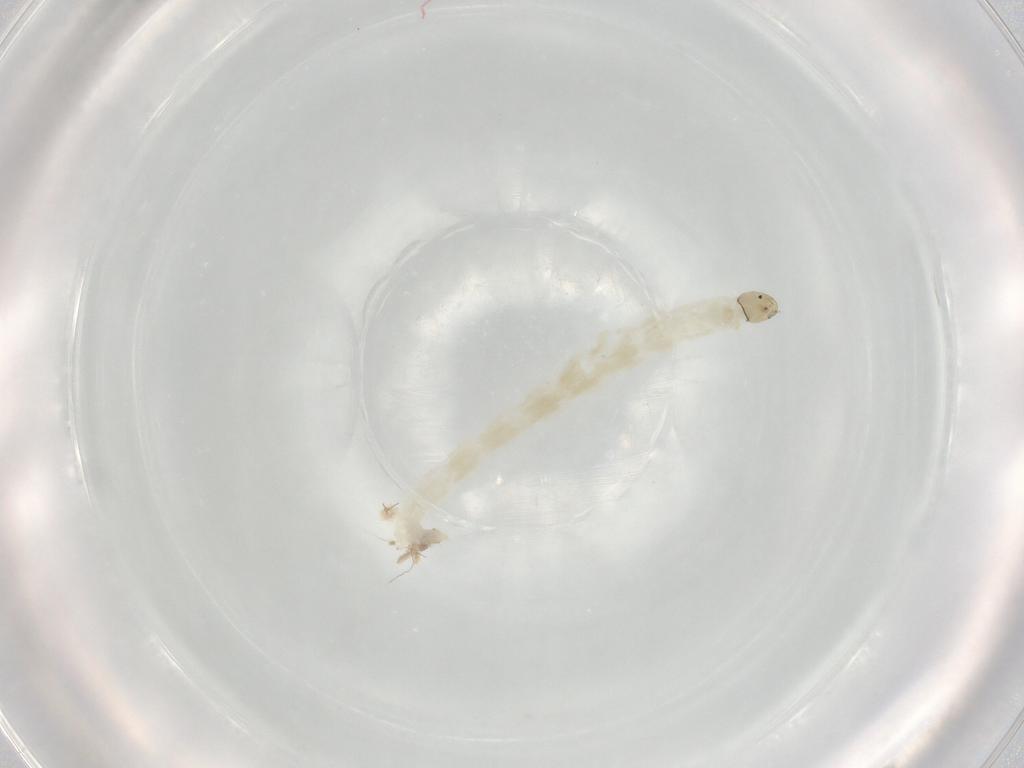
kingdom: Animalia
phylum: Arthropoda
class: Insecta
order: Diptera
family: Chironomidae
